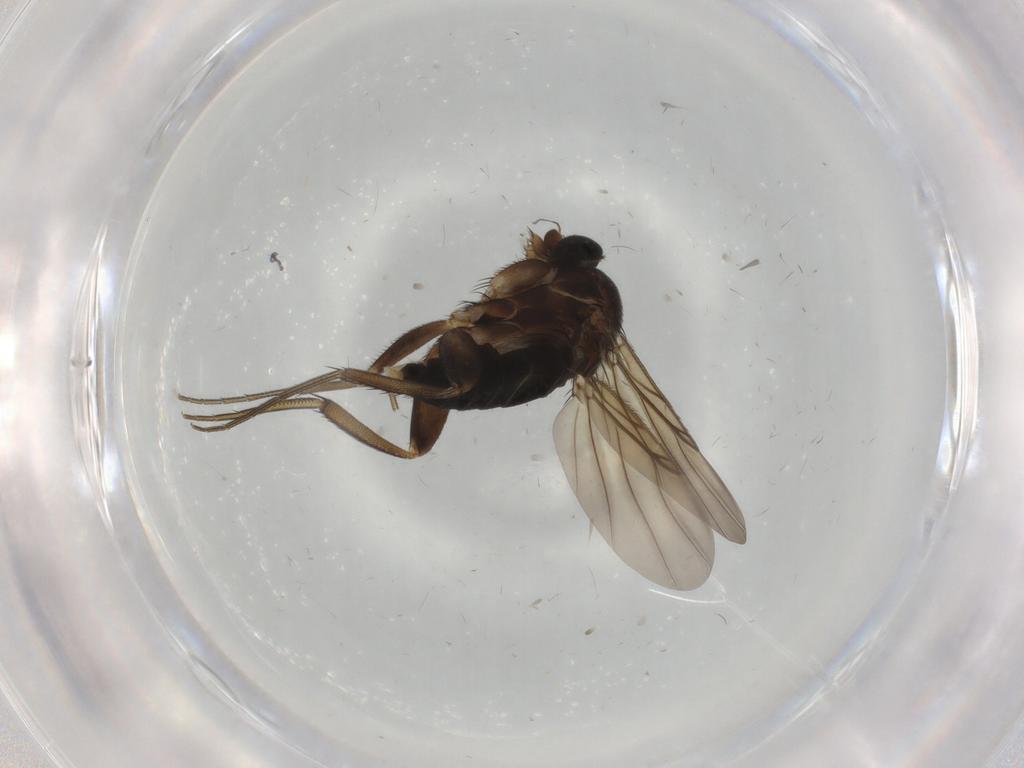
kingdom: Animalia
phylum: Arthropoda
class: Insecta
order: Diptera
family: Phoridae
